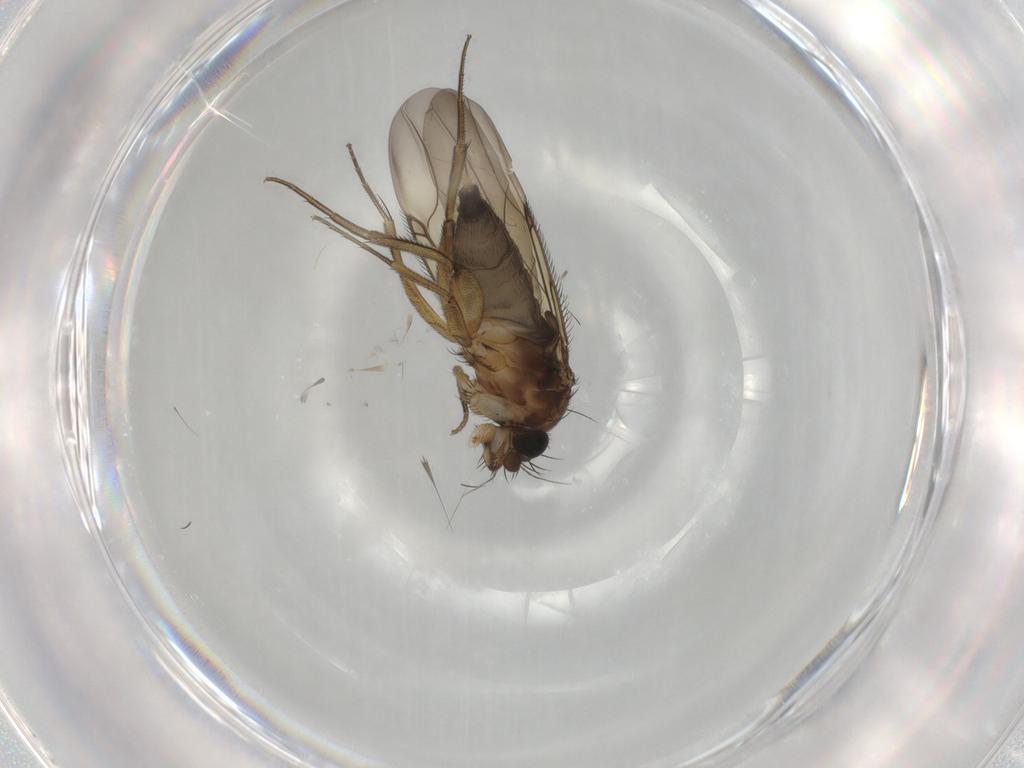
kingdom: Animalia
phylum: Arthropoda
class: Insecta
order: Diptera
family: Phoridae
